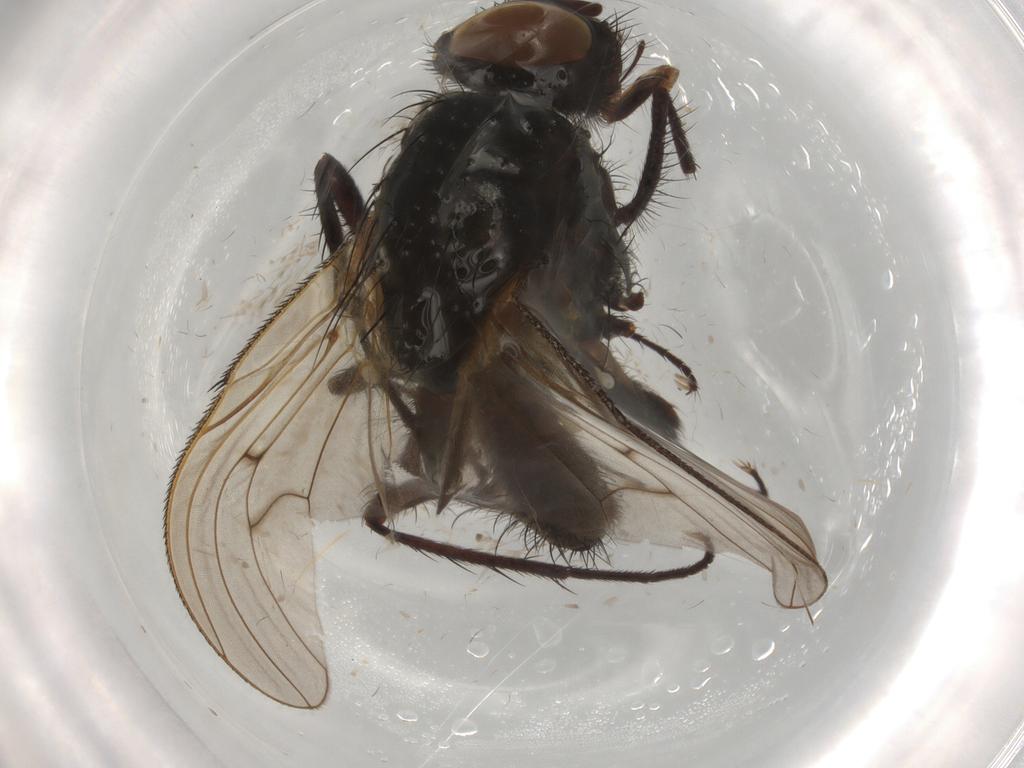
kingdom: Animalia
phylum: Arthropoda
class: Insecta
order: Diptera
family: Anthomyiidae
